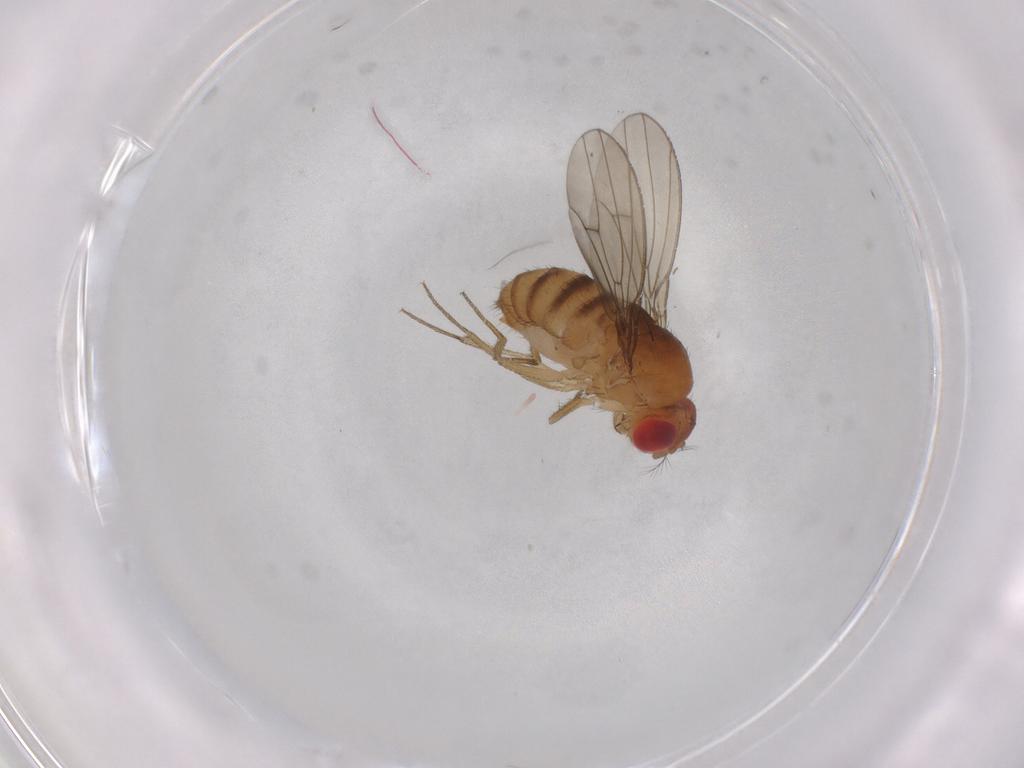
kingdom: Animalia
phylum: Arthropoda
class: Insecta
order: Diptera
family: Drosophilidae
